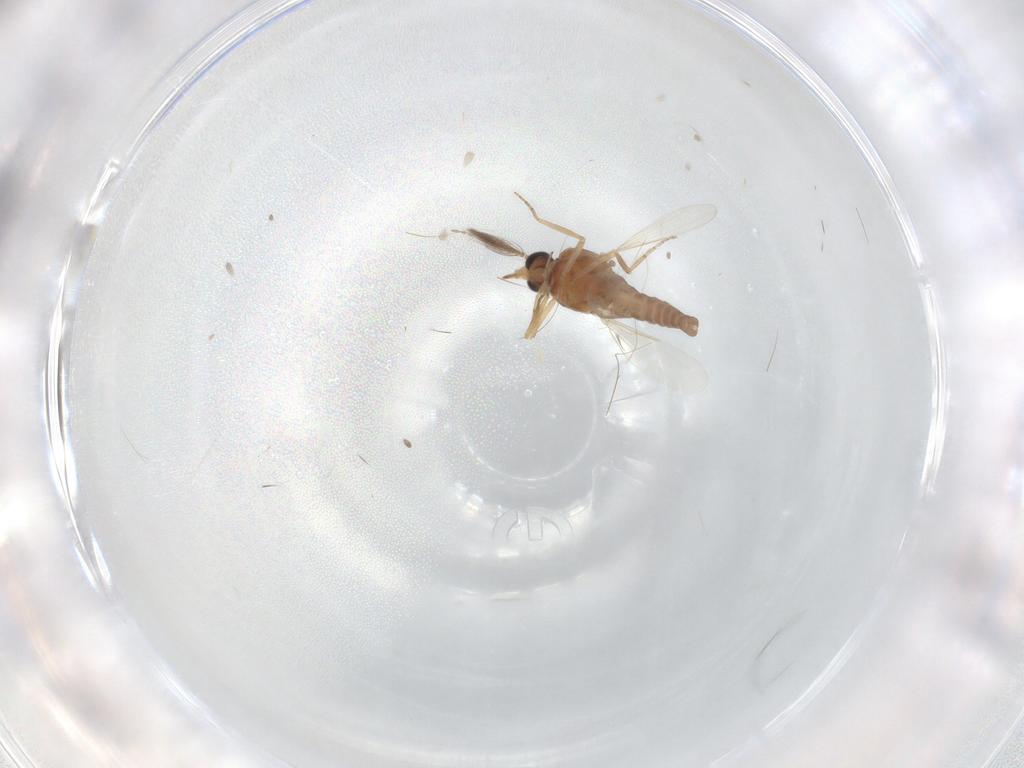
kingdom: Animalia
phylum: Arthropoda
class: Insecta
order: Diptera
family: Ceratopogonidae
